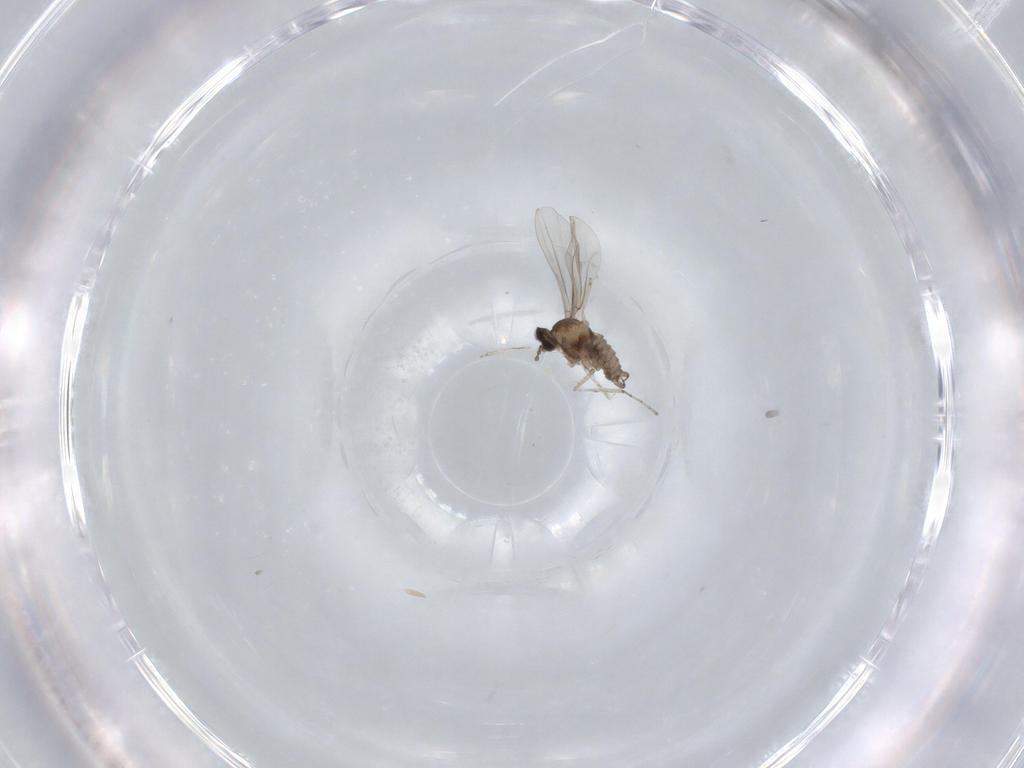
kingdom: Animalia
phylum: Arthropoda
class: Insecta
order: Diptera
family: Cecidomyiidae
